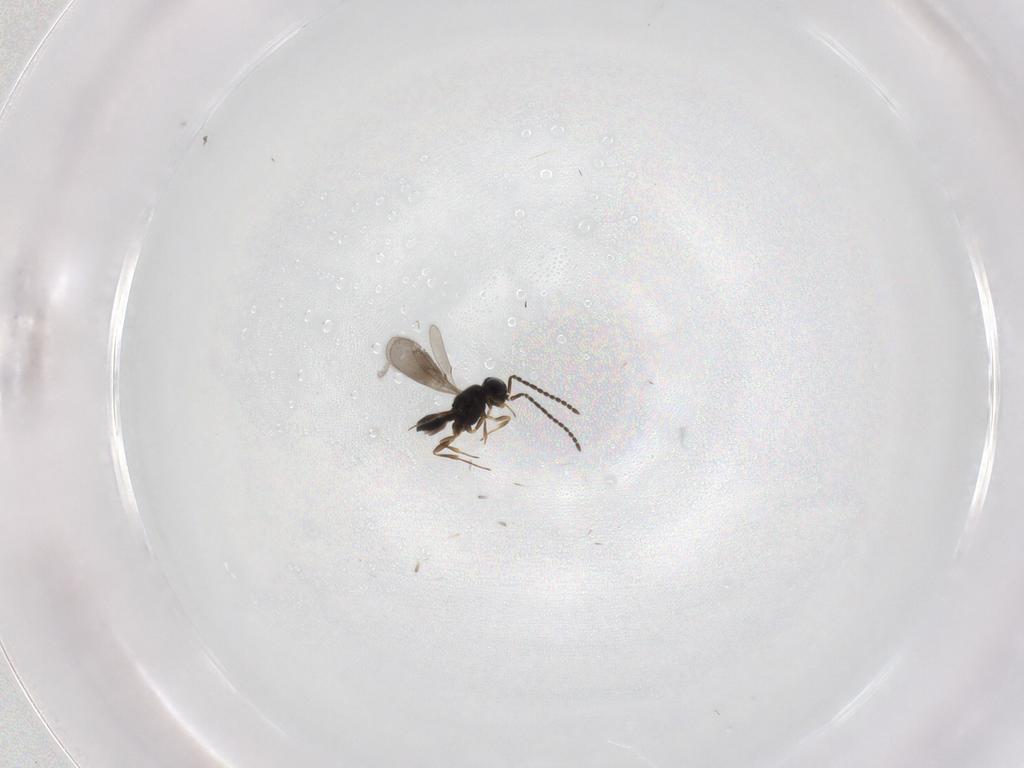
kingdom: Animalia
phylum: Arthropoda
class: Insecta
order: Hymenoptera
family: Scelionidae
